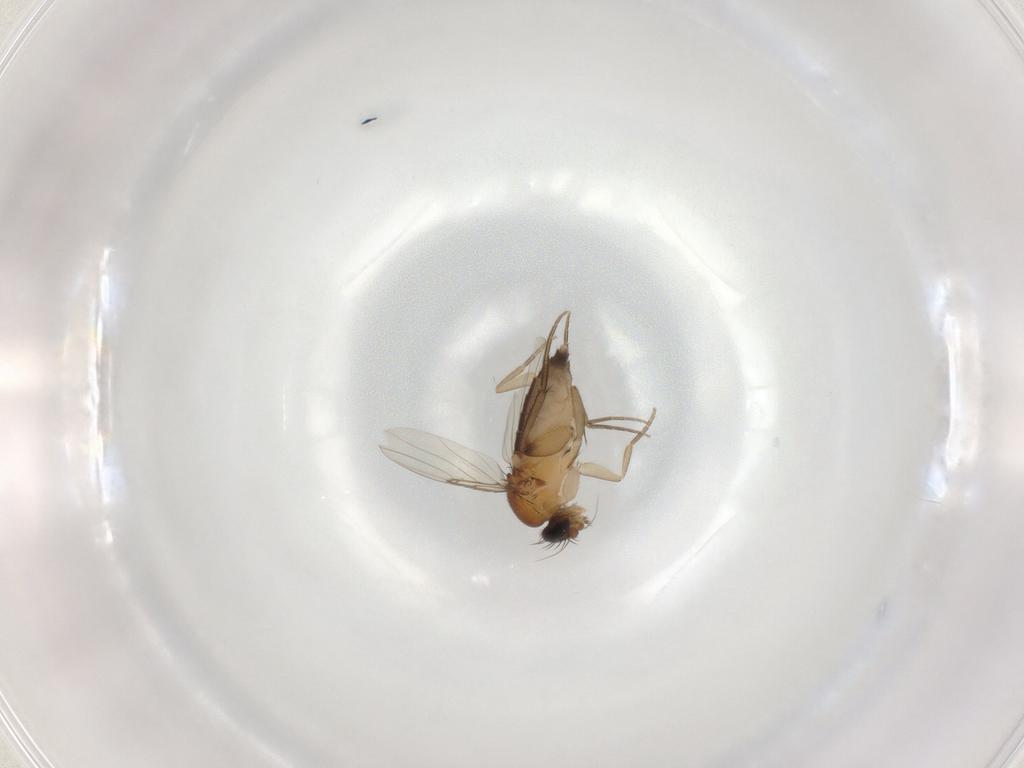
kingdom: Animalia
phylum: Arthropoda
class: Insecta
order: Diptera
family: Phoridae
